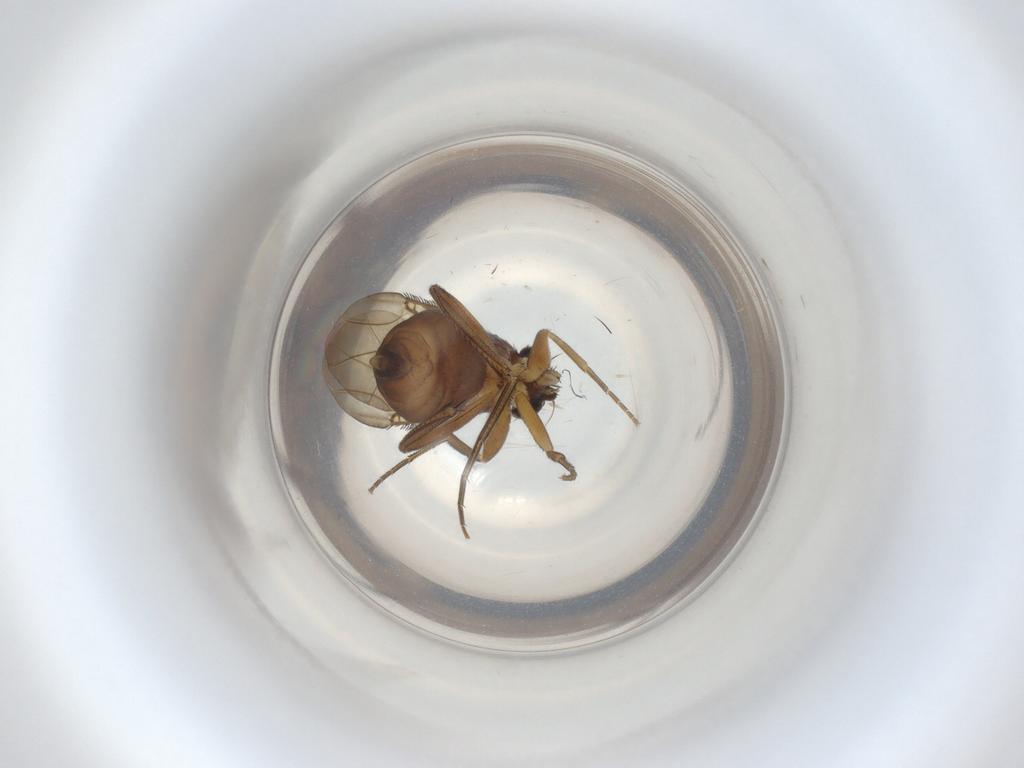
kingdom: Animalia
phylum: Arthropoda
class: Insecta
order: Diptera
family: Phoridae
